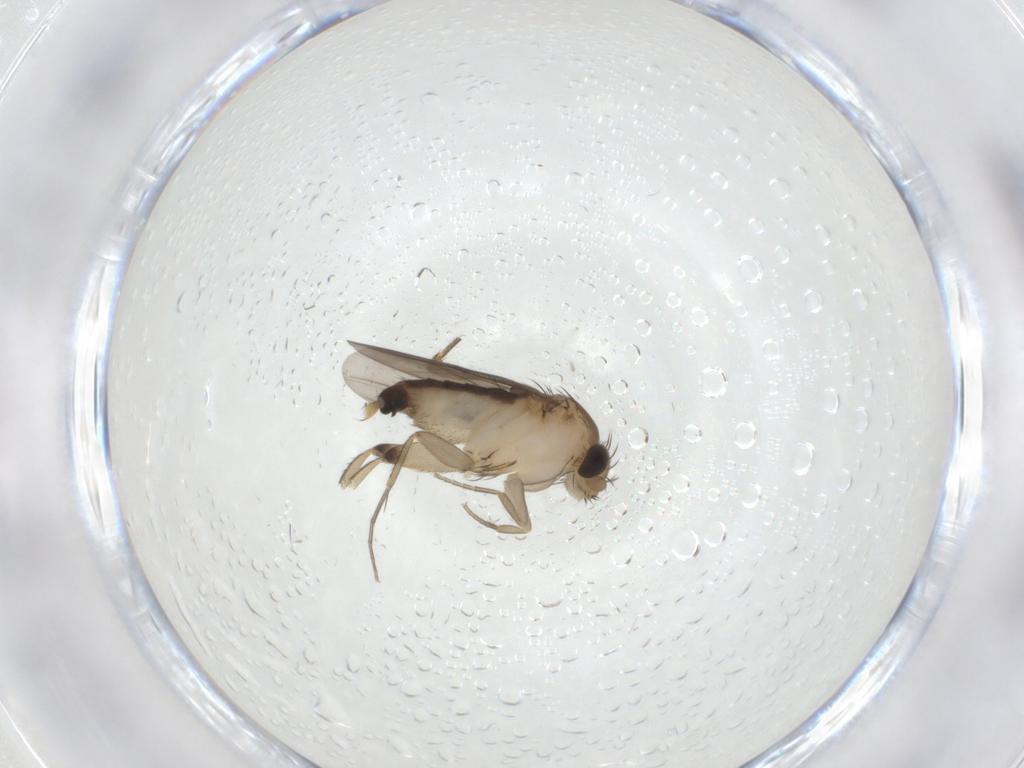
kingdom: Animalia
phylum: Arthropoda
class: Insecta
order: Diptera
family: Phoridae
